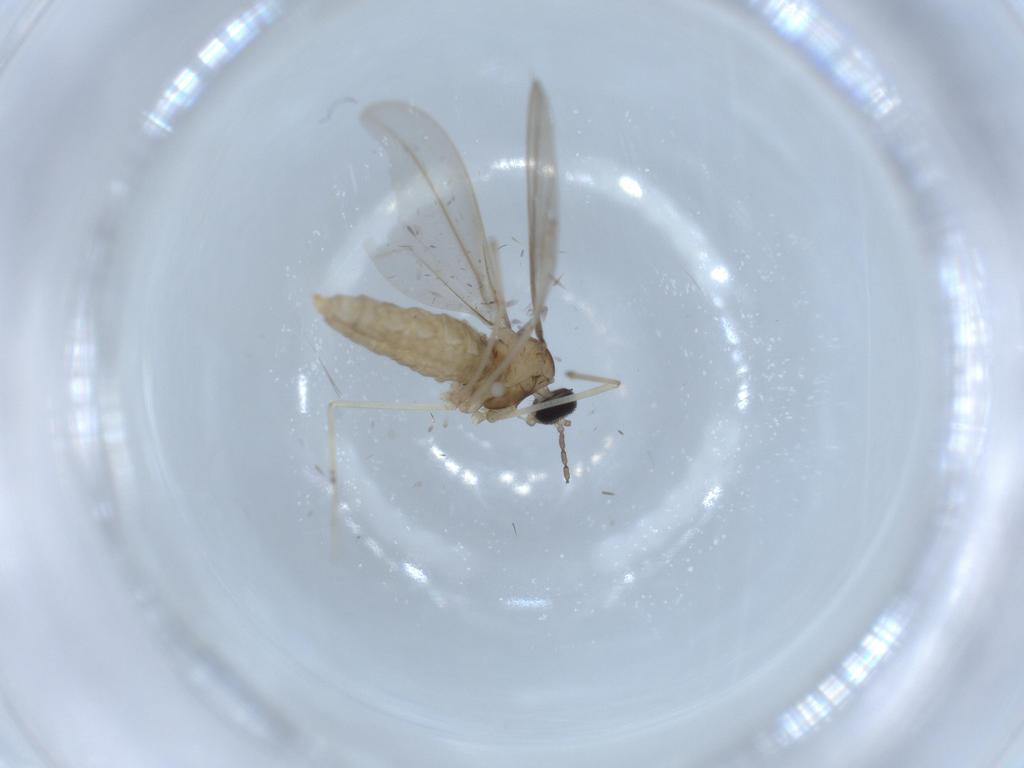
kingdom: Animalia
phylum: Arthropoda
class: Insecta
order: Diptera
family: Cecidomyiidae
